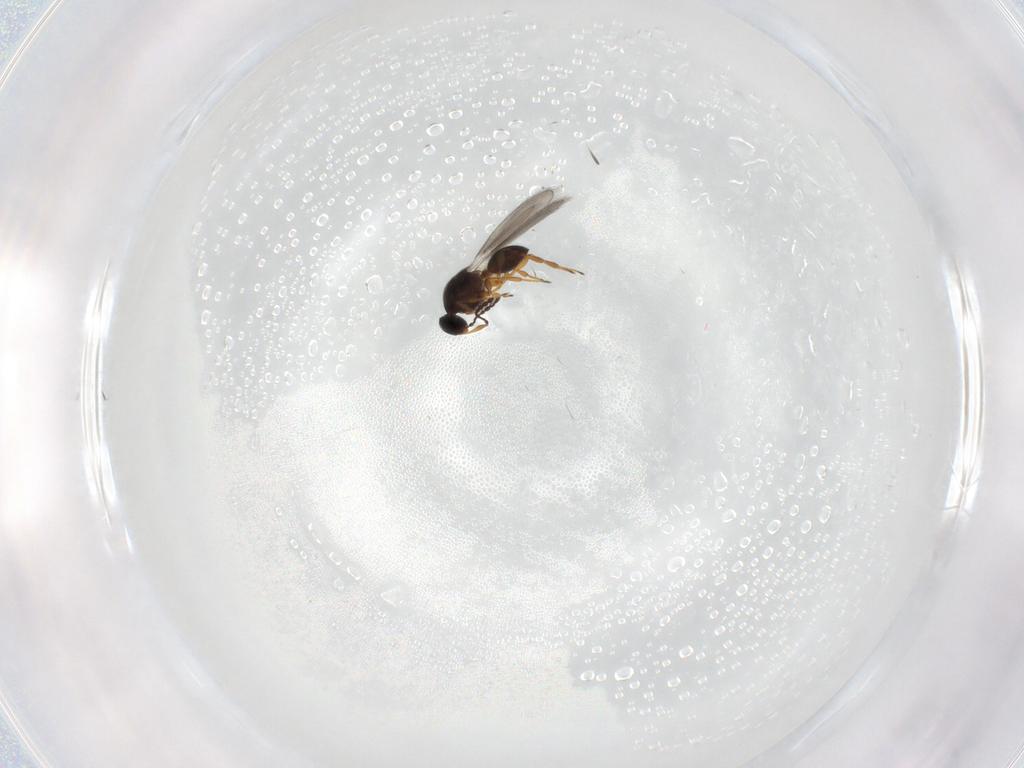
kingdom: Animalia
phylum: Arthropoda
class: Insecta
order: Hymenoptera
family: Platygastridae
